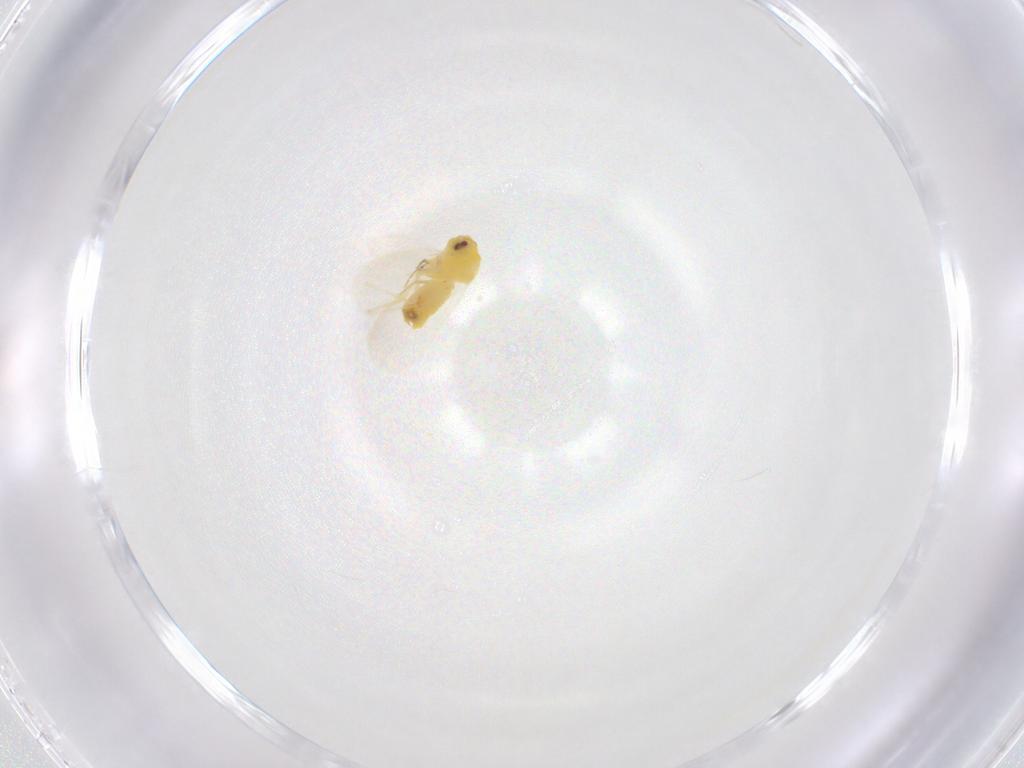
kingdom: Animalia
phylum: Arthropoda
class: Insecta
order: Hemiptera
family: Aleyrodidae
